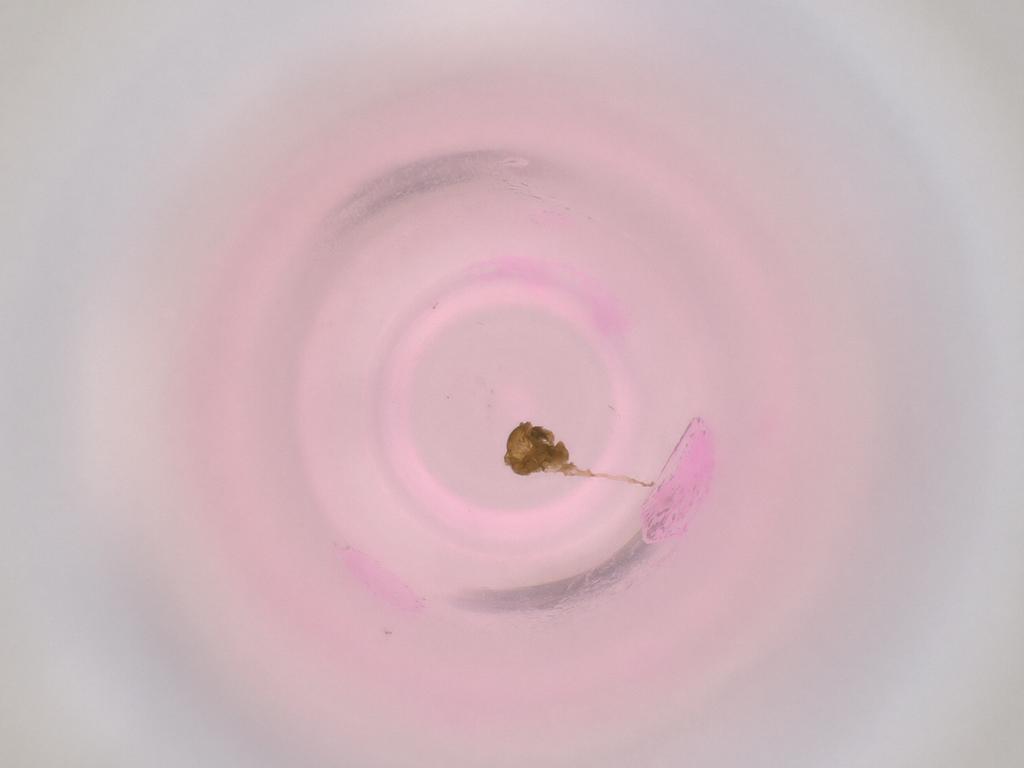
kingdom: Animalia
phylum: Arthropoda
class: Insecta
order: Diptera
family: Cecidomyiidae
